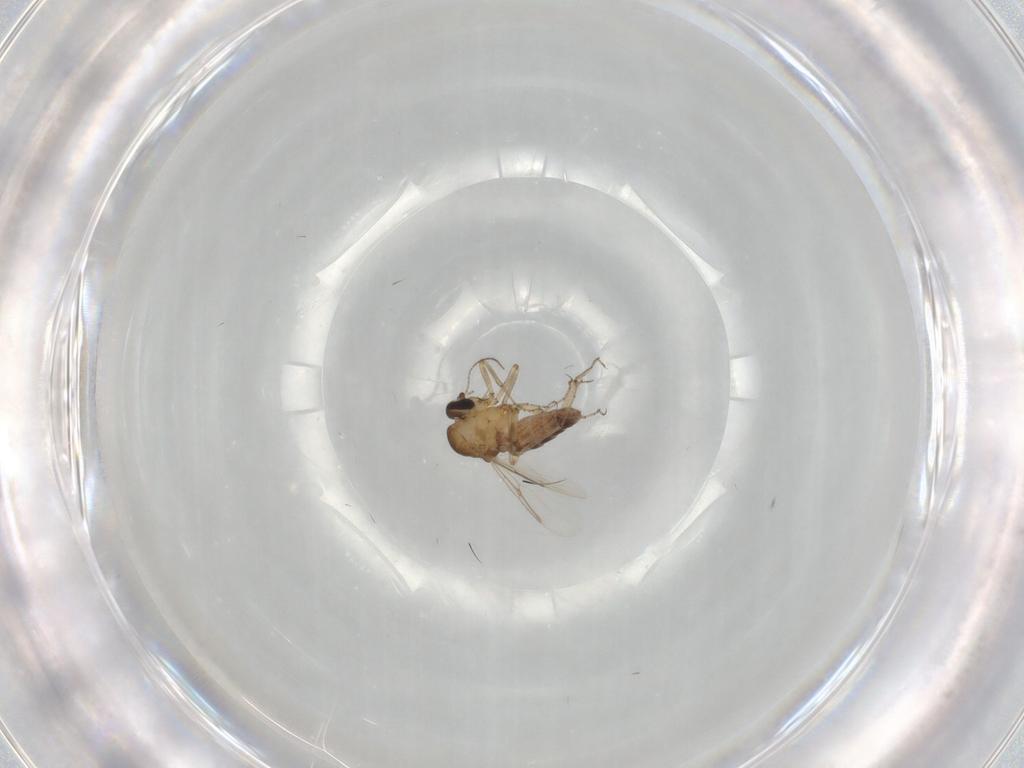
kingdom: Animalia
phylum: Arthropoda
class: Insecta
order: Diptera
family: Ceratopogonidae
